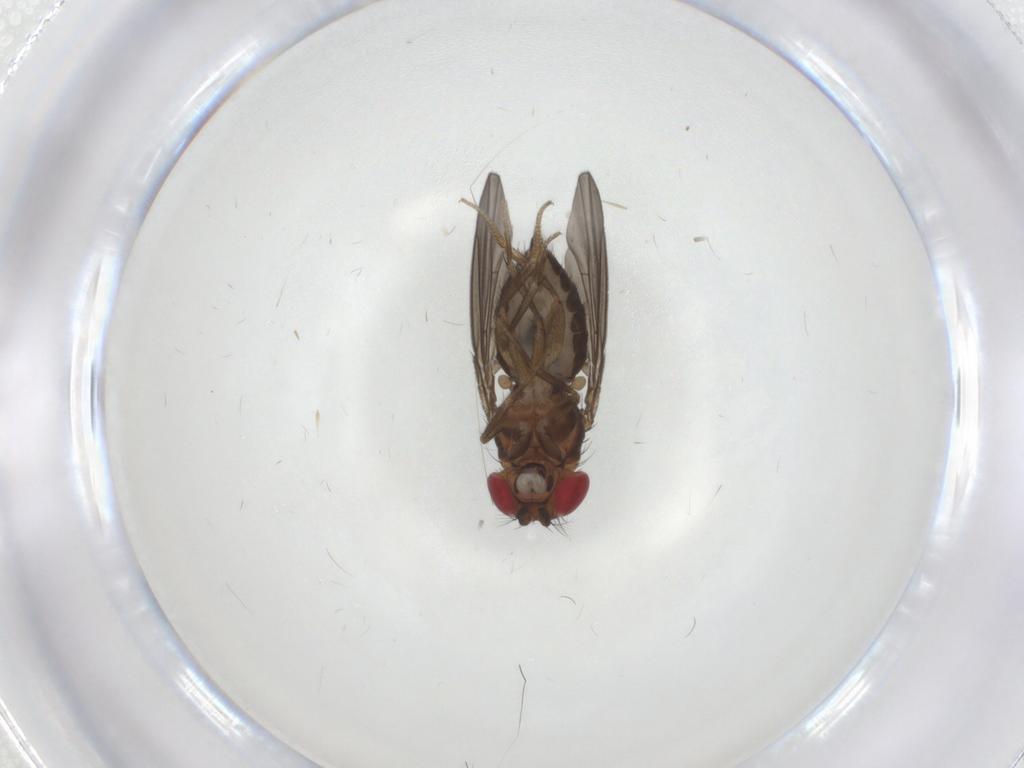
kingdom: Animalia
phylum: Arthropoda
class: Insecta
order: Diptera
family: Drosophilidae
